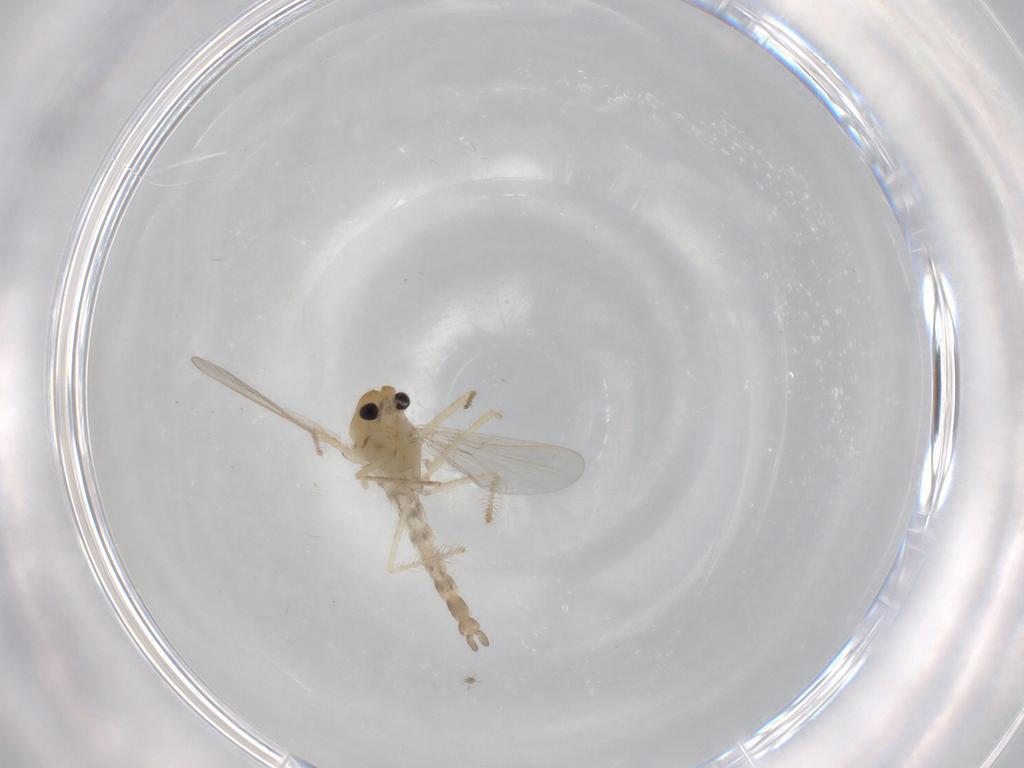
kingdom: Animalia
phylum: Arthropoda
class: Insecta
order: Diptera
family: Chironomidae
